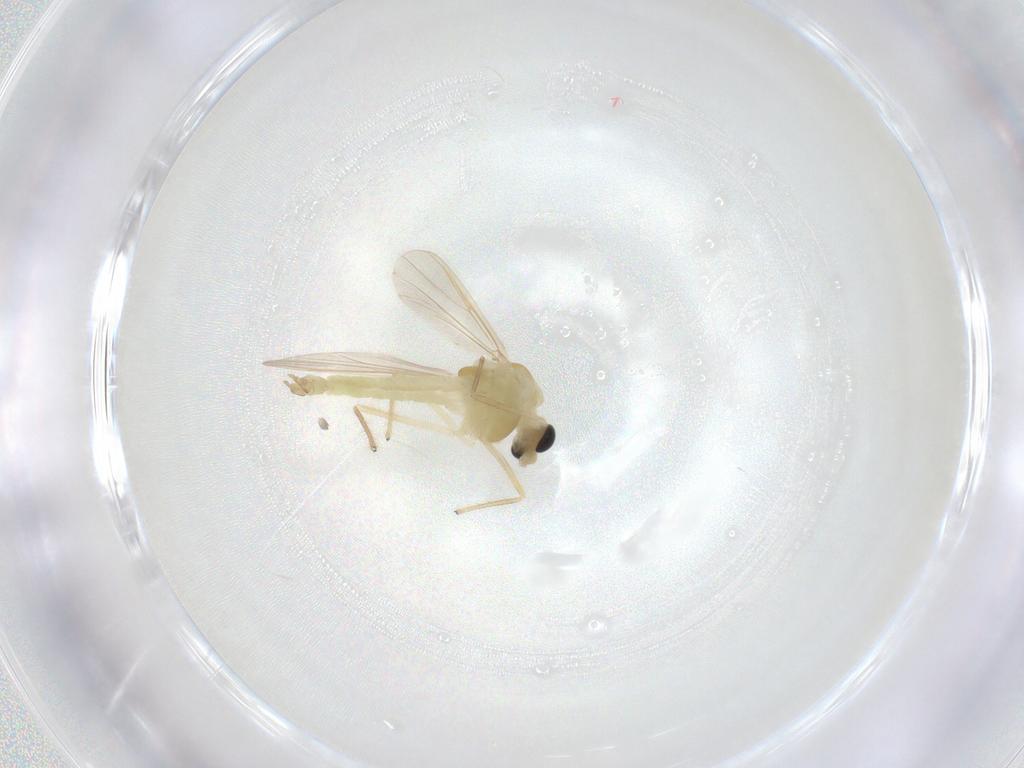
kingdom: Animalia
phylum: Arthropoda
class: Insecta
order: Diptera
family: Chironomidae
